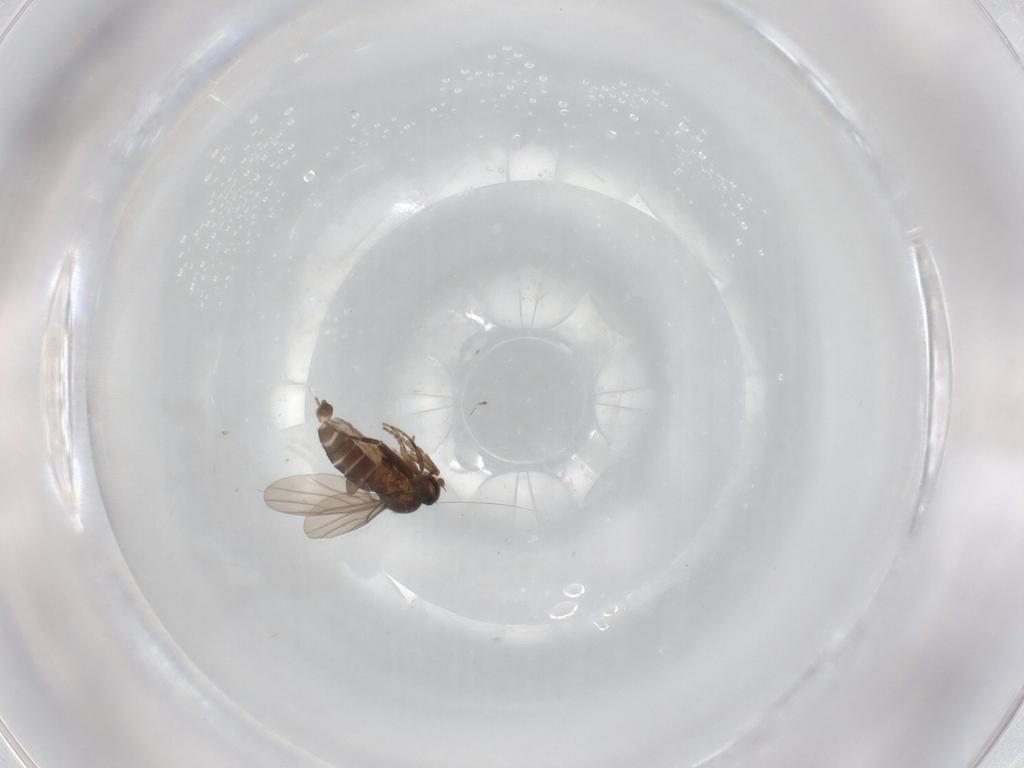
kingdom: Animalia
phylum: Arthropoda
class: Insecta
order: Diptera
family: Phoridae
